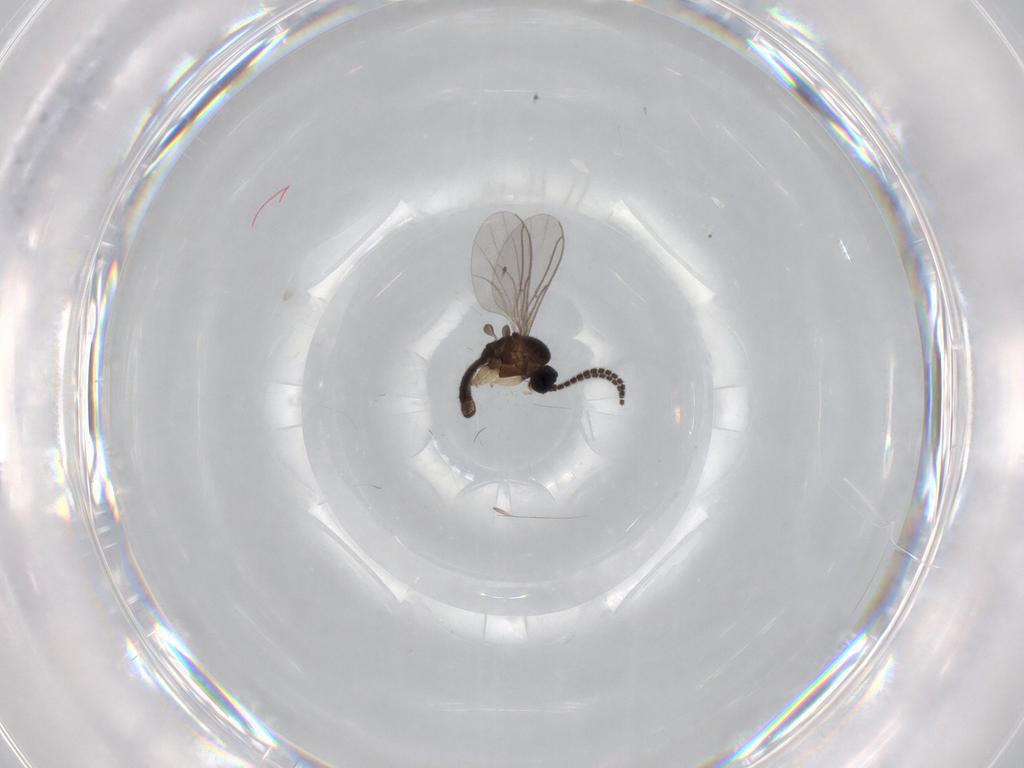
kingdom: Animalia
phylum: Arthropoda
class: Insecta
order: Diptera
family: Sciaridae
